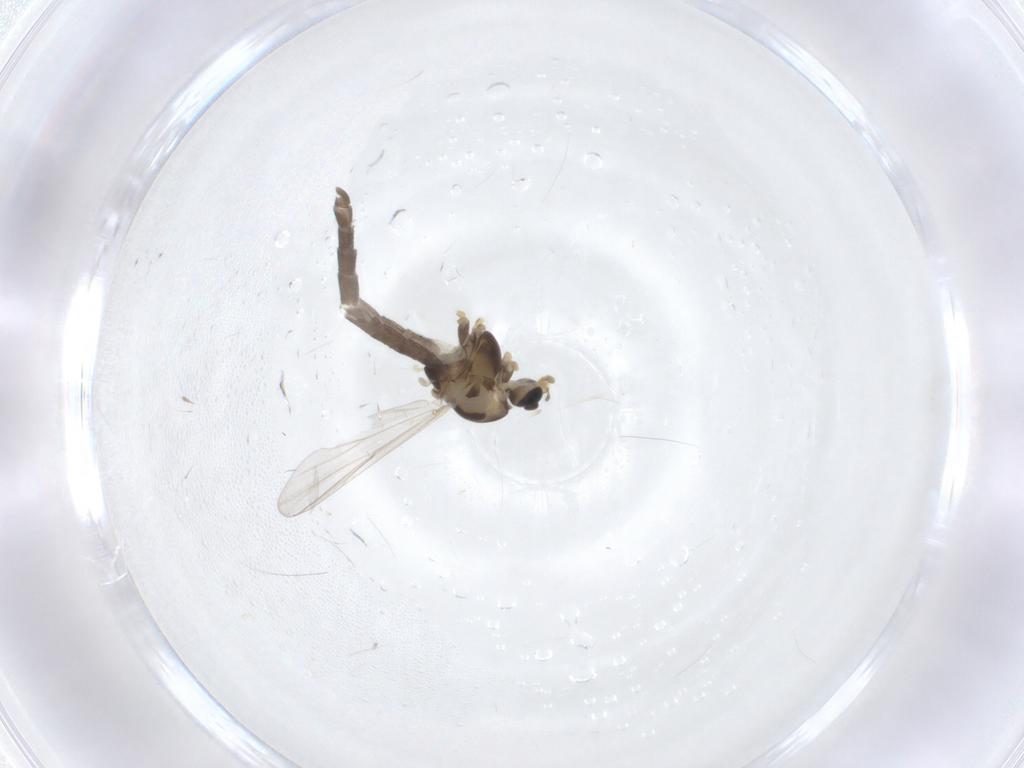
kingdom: Animalia
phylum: Arthropoda
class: Insecta
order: Diptera
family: Chironomidae
